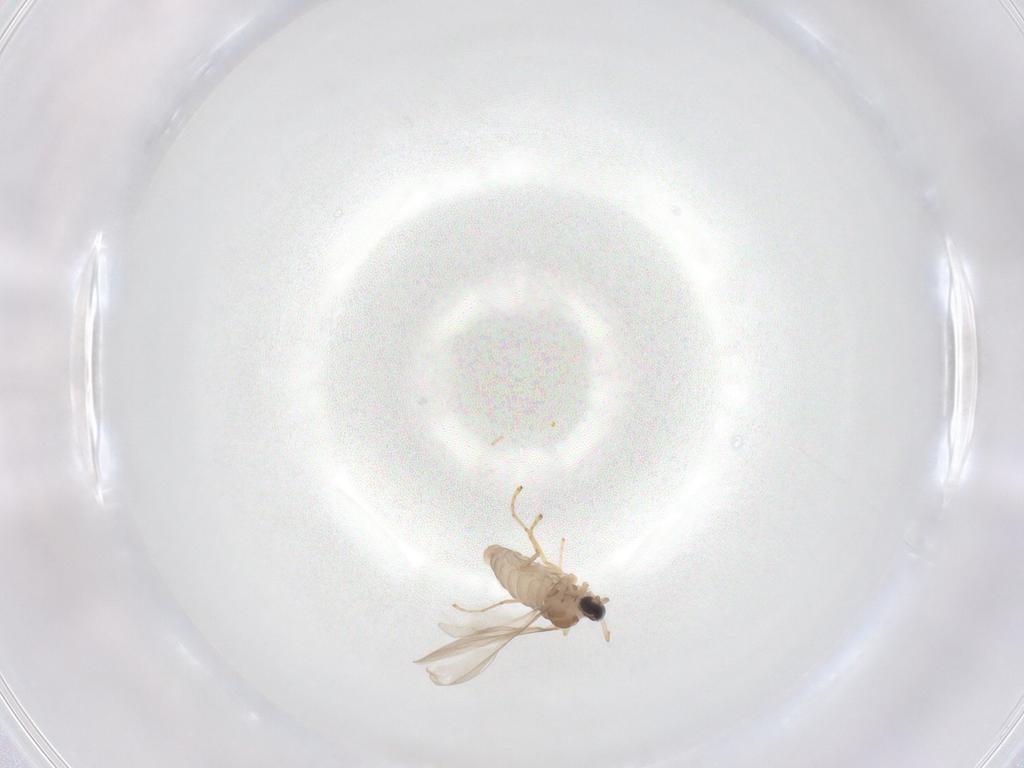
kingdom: Animalia
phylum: Arthropoda
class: Insecta
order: Diptera
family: Cecidomyiidae
